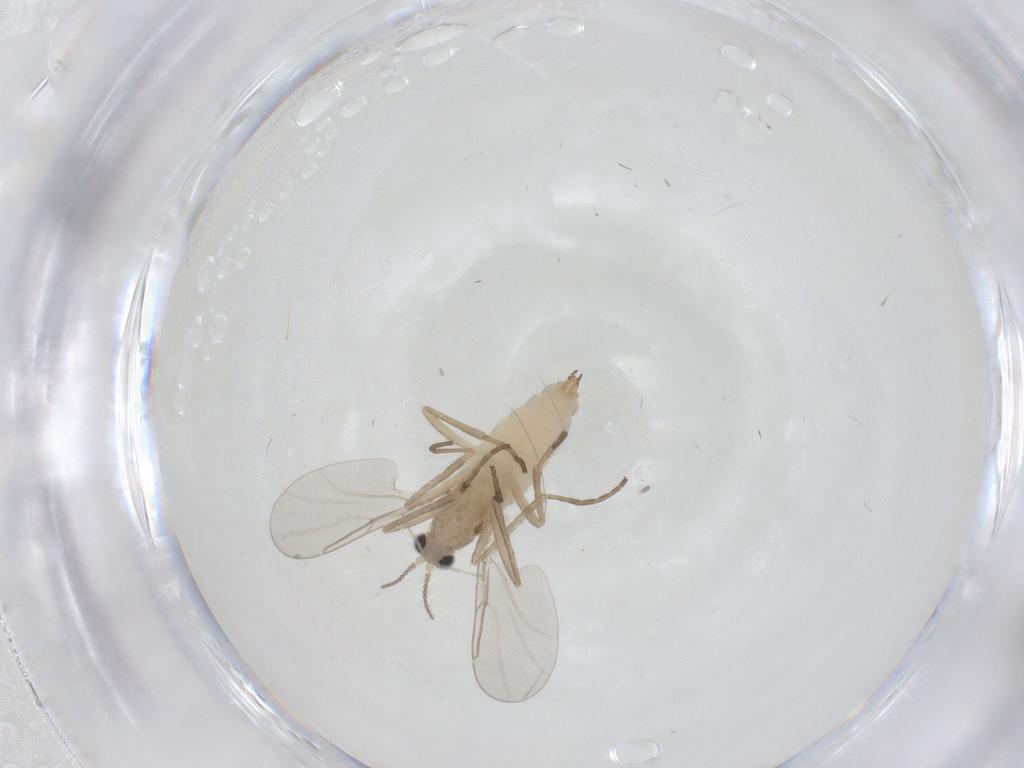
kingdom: Animalia
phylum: Arthropoda
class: Insecta
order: Diptera
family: Cecidomyiidae
